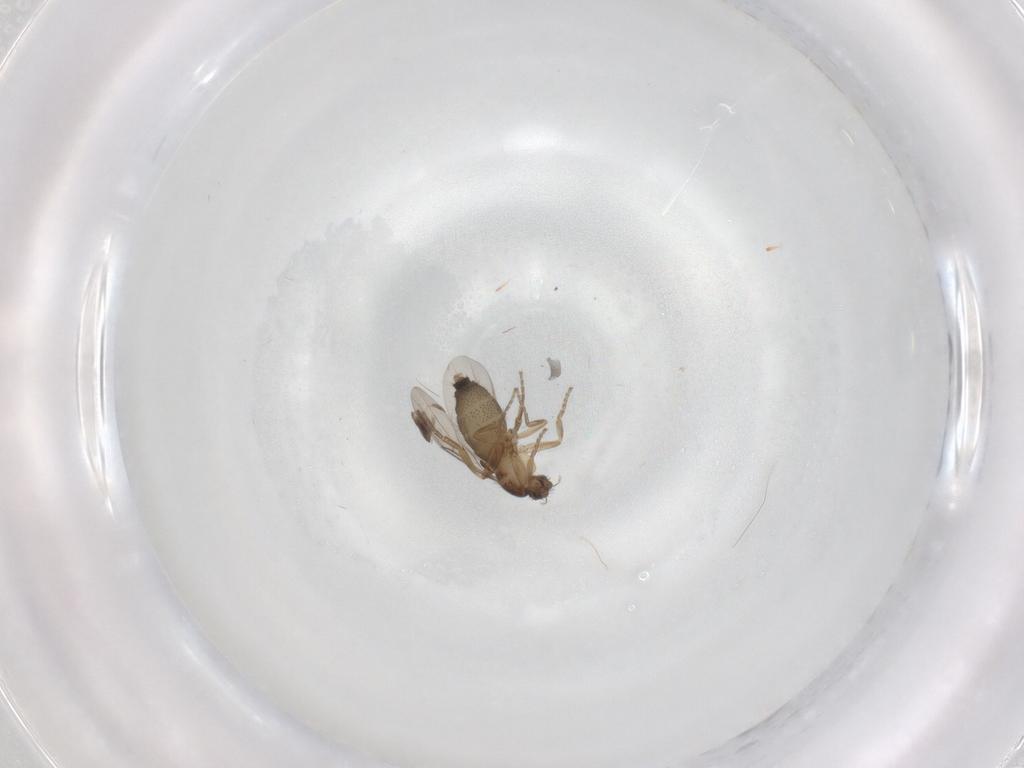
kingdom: Animalia
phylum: Arthropoda
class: Insecta
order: Diptera
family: Phoridae
